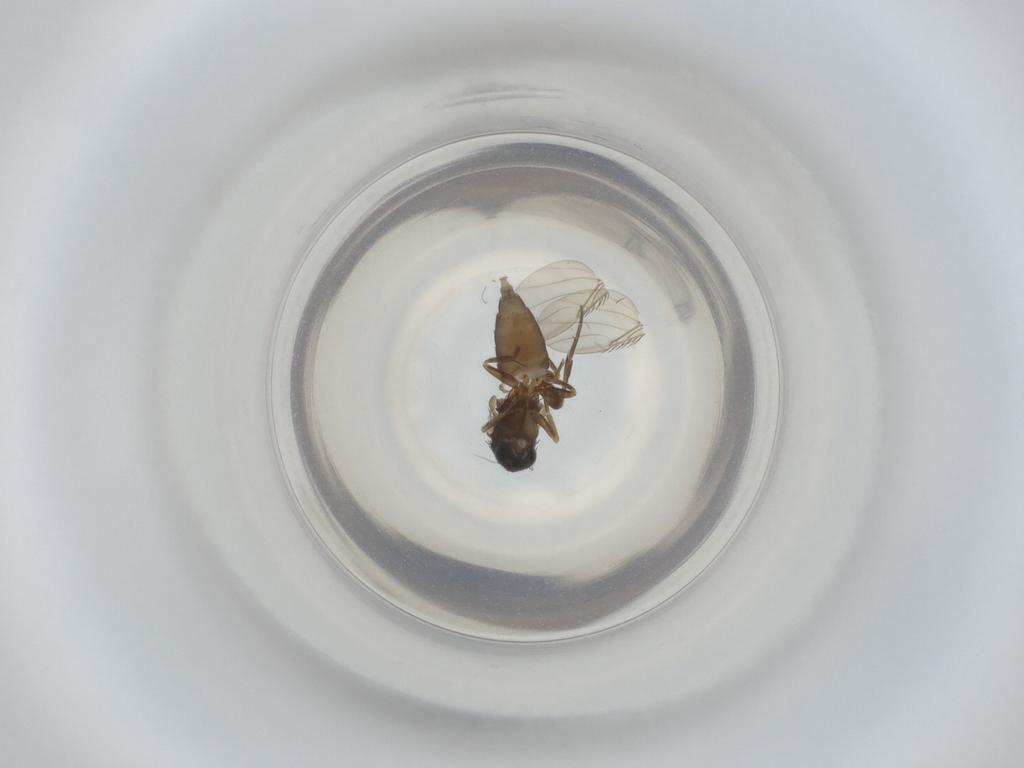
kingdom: Animalia
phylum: Arthropoda
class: Insecta
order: Diptera
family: Phoridae
